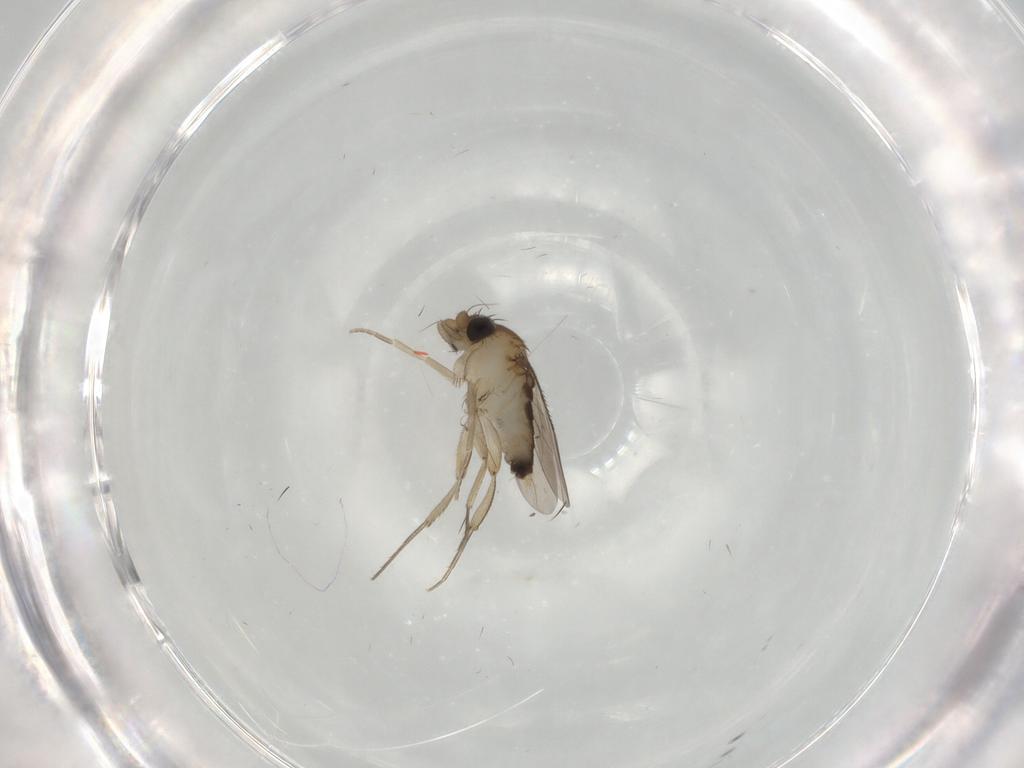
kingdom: Animalia
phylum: Arthropoda
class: Insecta
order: Diptera
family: Phoridae
